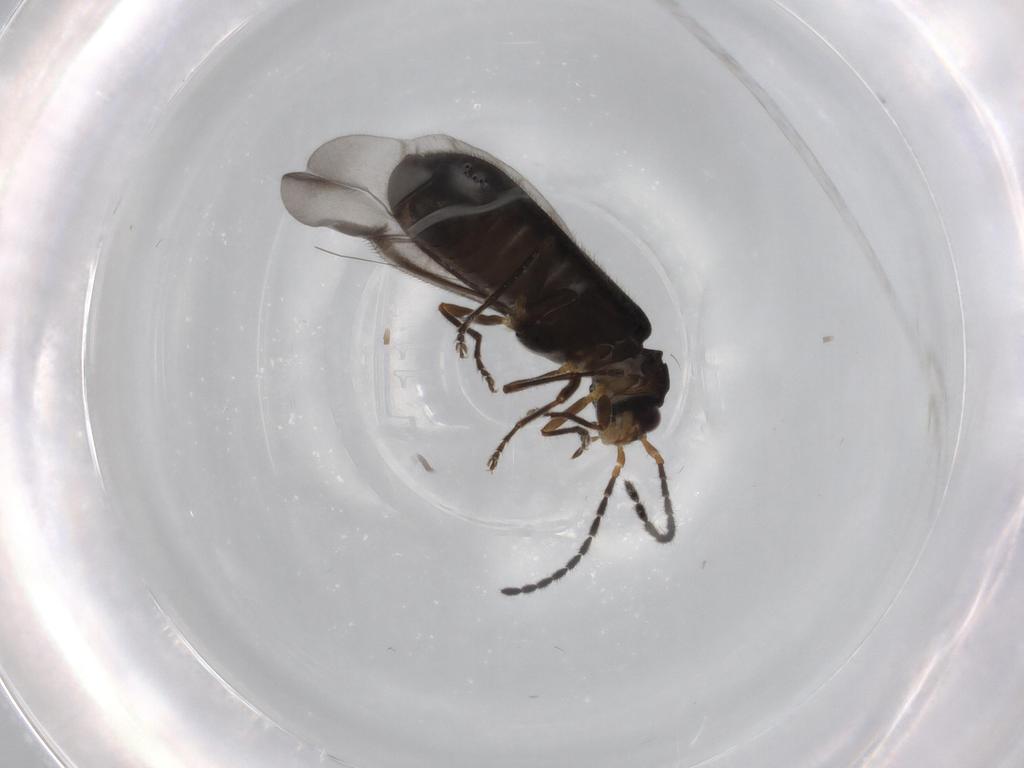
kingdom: Animalia
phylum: Arthropoda
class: Insecta
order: Coleoptera
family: Cantharidae
